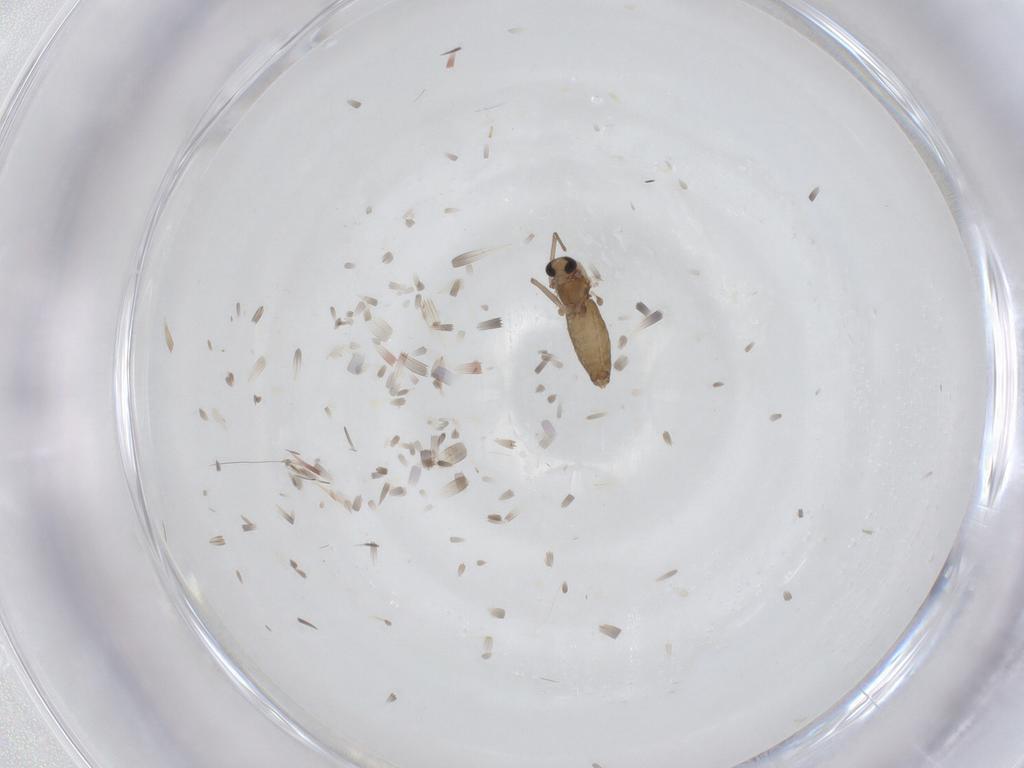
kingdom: Animalia
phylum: Arthropoda
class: Insecta
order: Diptera
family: Chironomidae
